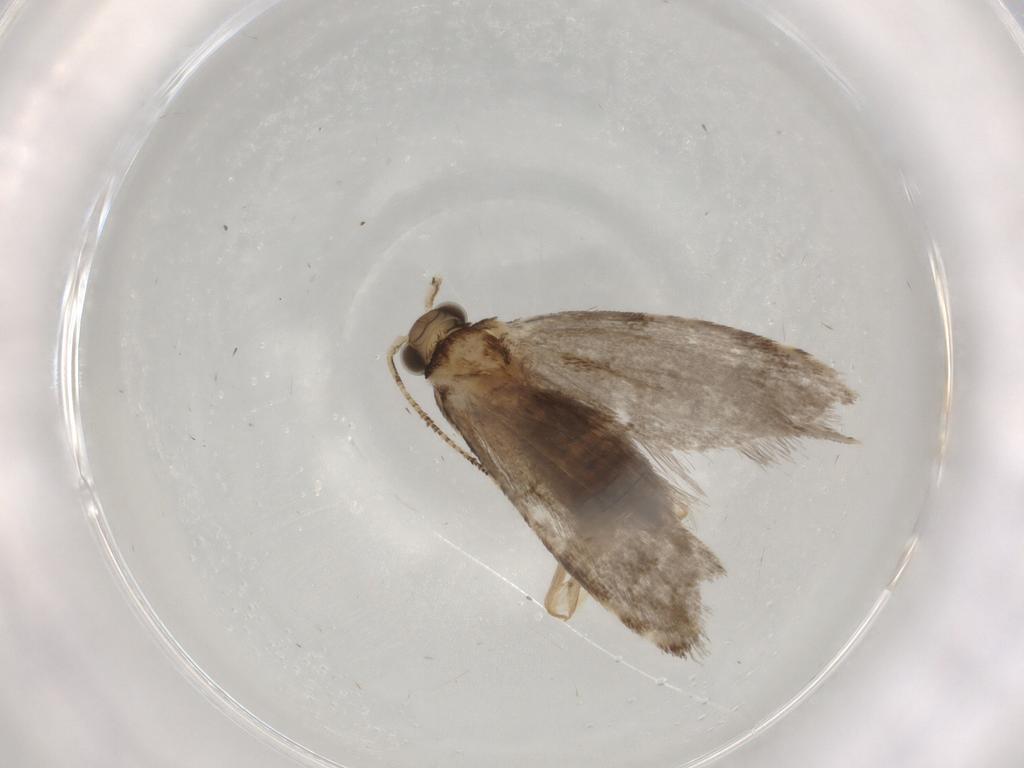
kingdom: Animalia
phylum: Arthropoda
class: Insecta
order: Lepidoptera
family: Tineidae
